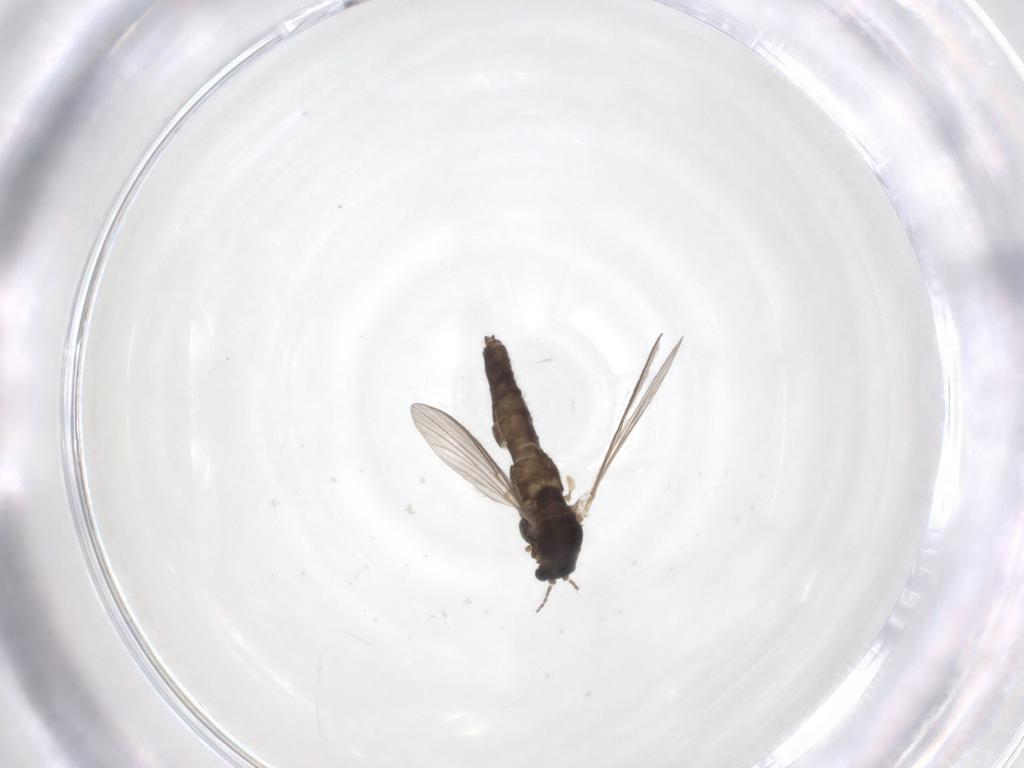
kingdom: Animalia
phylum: Arthropoda
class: Insecta
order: Diptera
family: Chironomidae
